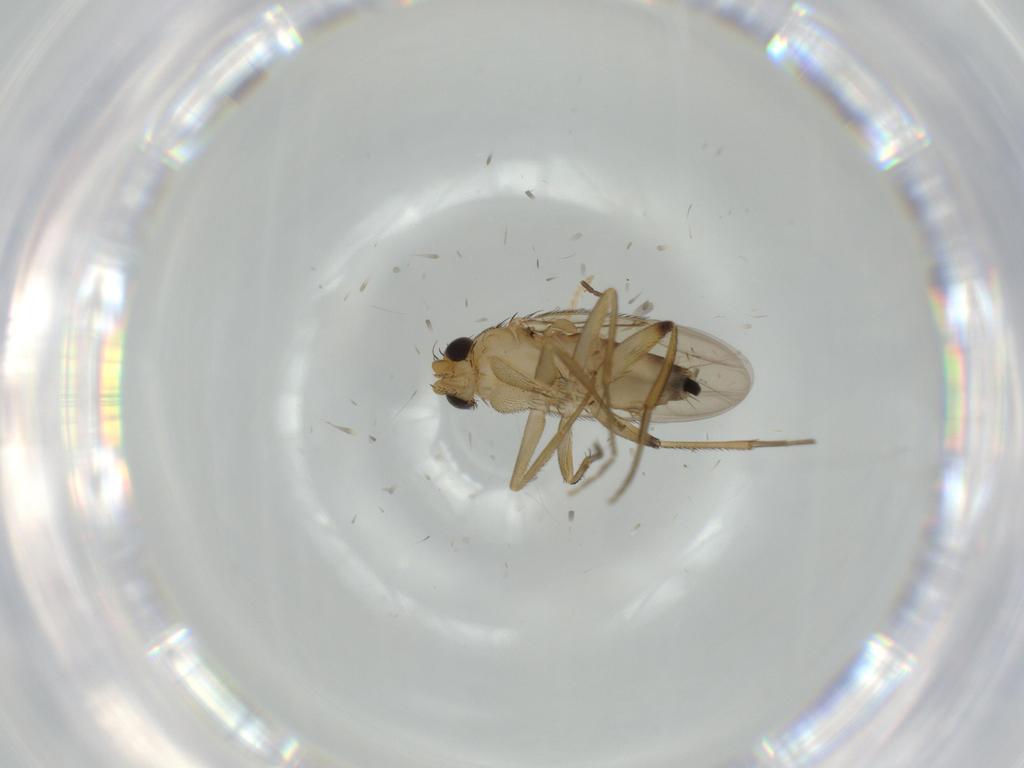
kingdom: Animalia
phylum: Arthropoda
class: Insecta
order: Diptera
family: Phoridae
